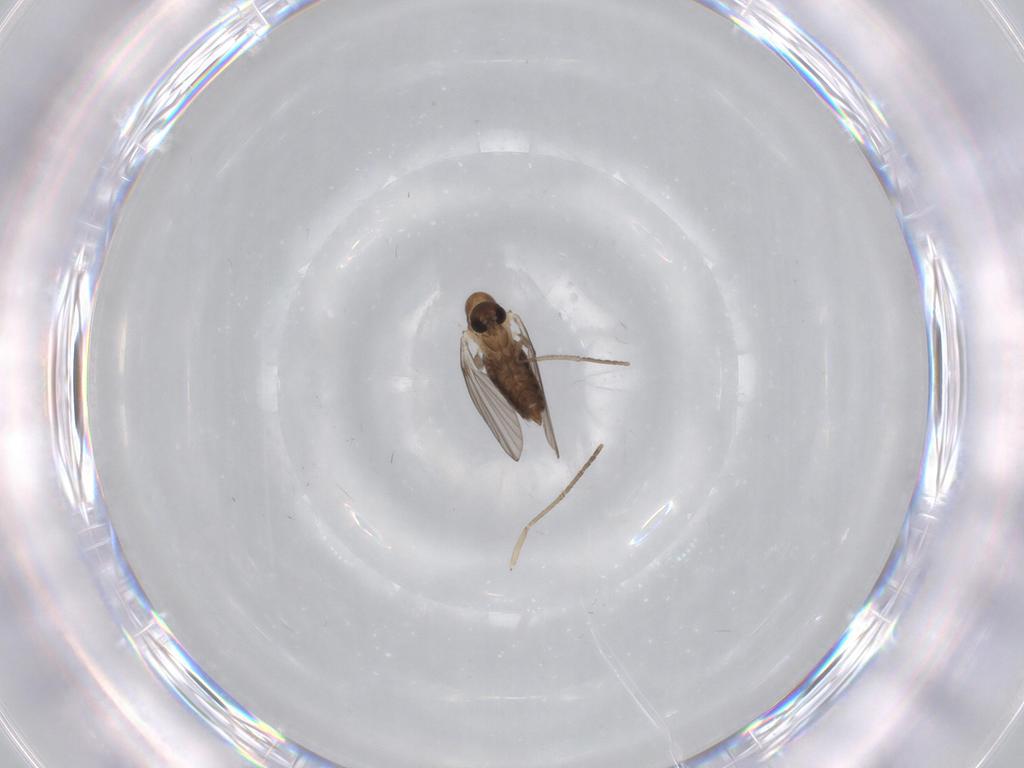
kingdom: Animalia
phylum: Arthropoda
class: Insecta
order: Diptera
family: Psychodidae
